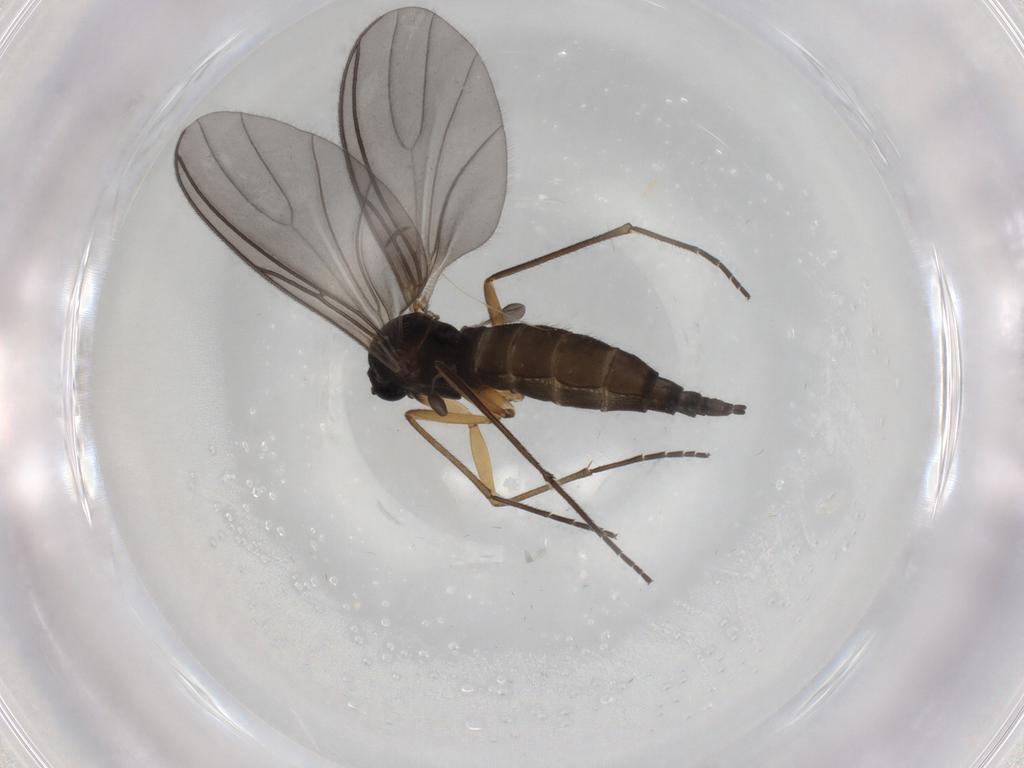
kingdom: Animalia
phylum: Arthropoda
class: Insecta
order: Diptera
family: Sciaridae
